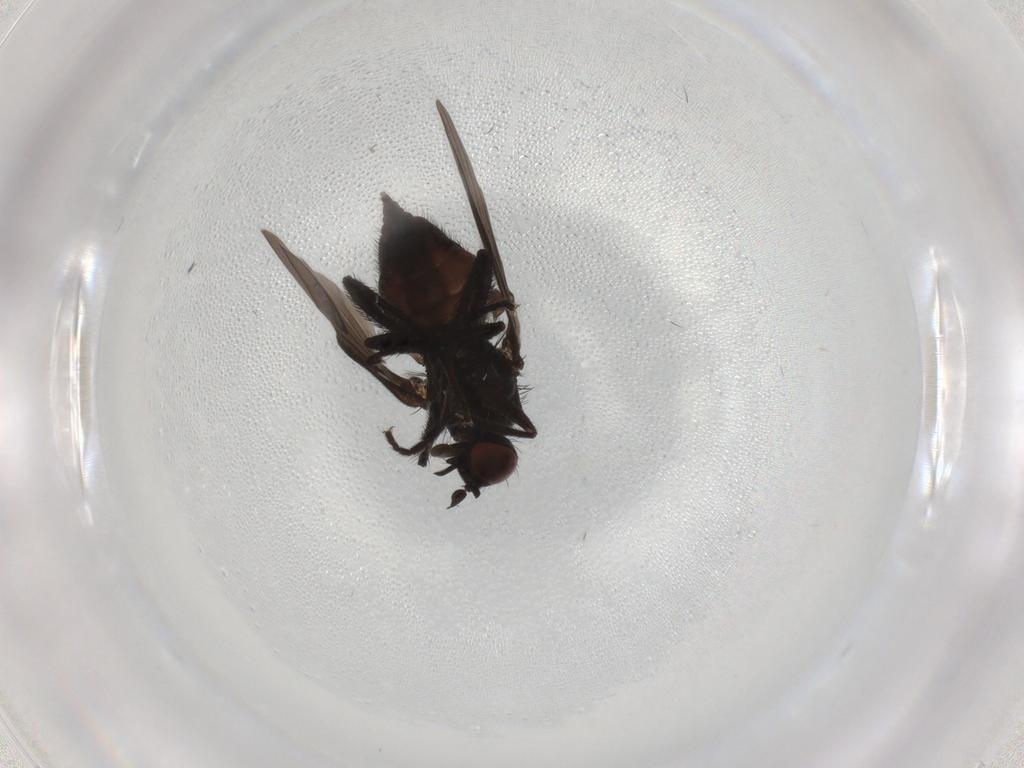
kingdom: Animalia
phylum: Arthropoda
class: Insecta
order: Diptera
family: Empididae
